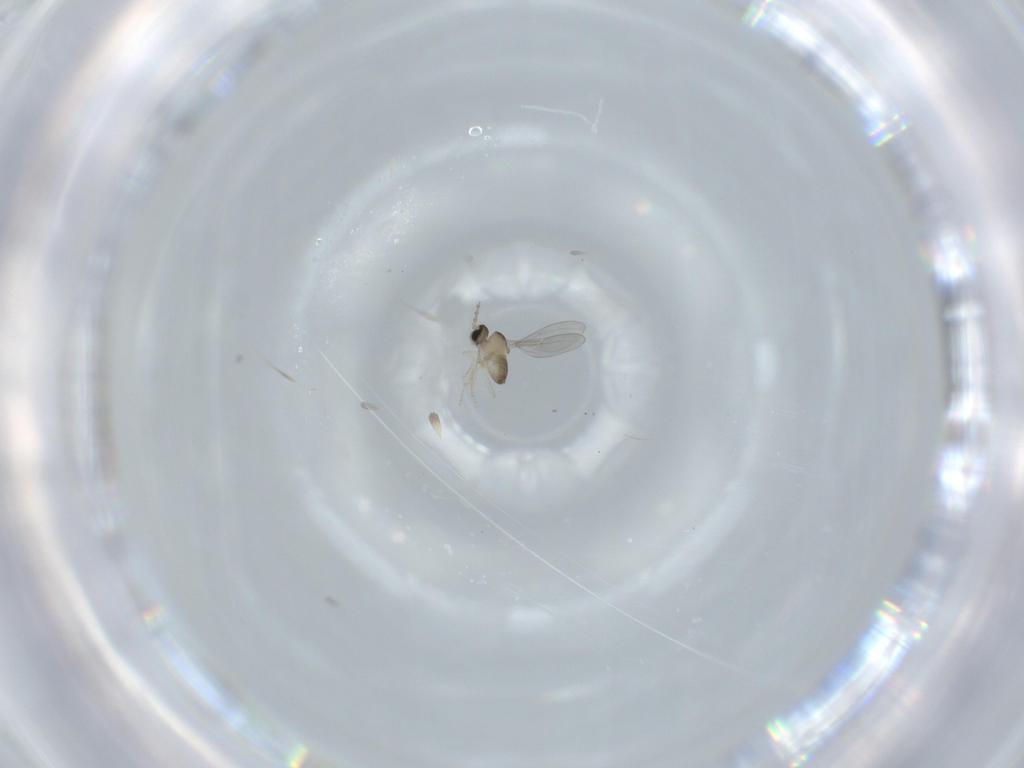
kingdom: Animalia
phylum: Arthropoda
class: Insecta
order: Diptera
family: Cecidomyiidae
